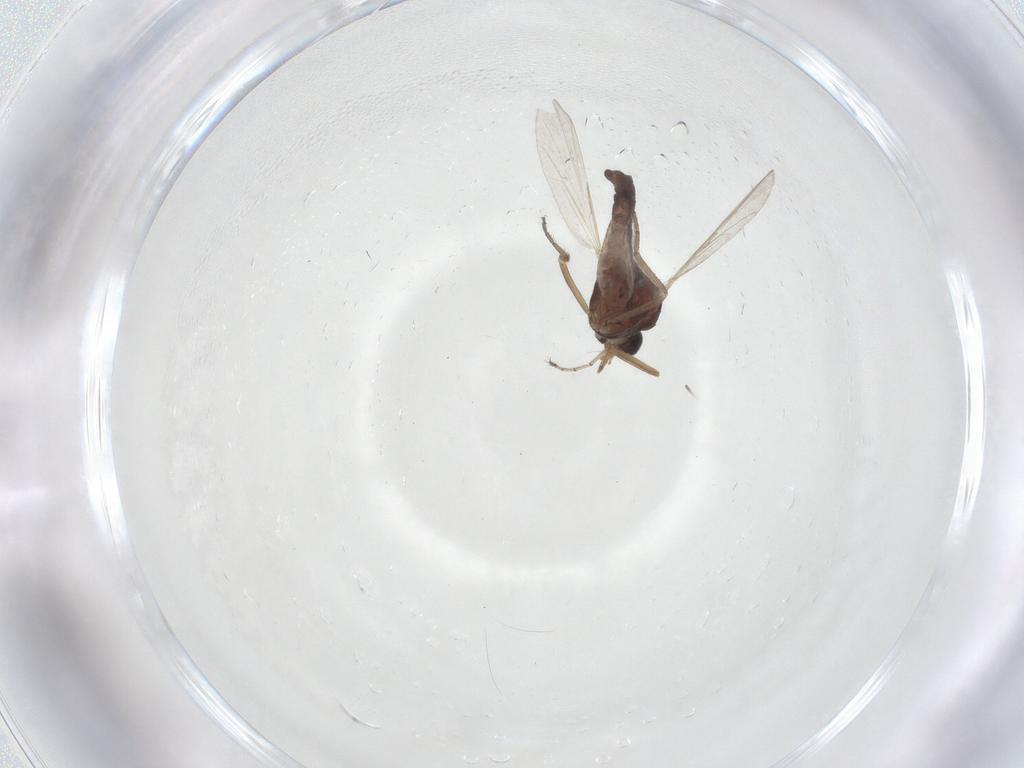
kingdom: Animalia
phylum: Arthropoda
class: Insecta
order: Diptera
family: Ceratopogonidae
